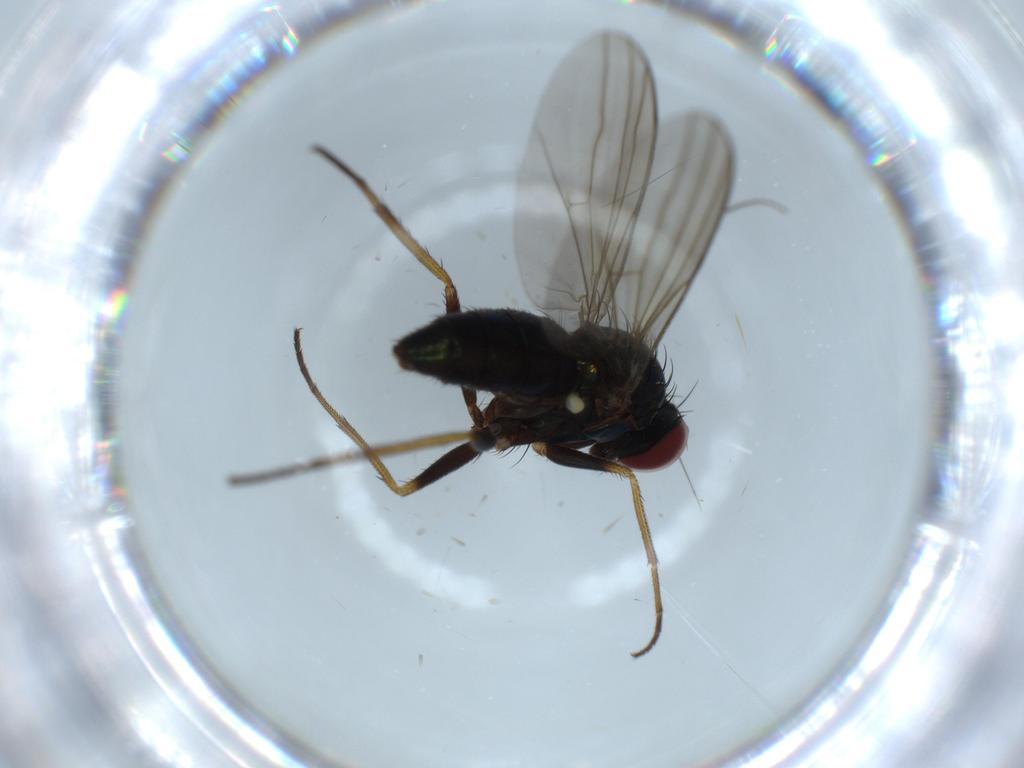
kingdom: Animalia
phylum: Arthropoda
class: Insecta
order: Diptera
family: Dolichopodidae
